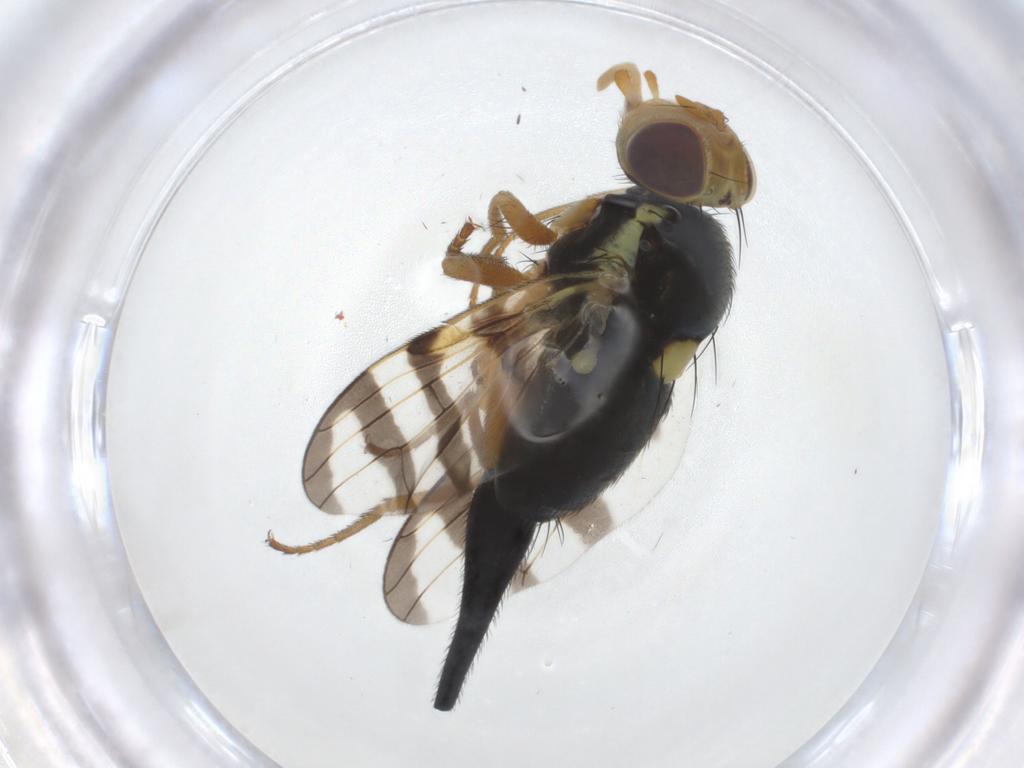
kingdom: Animalia
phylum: Arthropoda
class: Insecta
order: Diptera
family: Tephritidae
